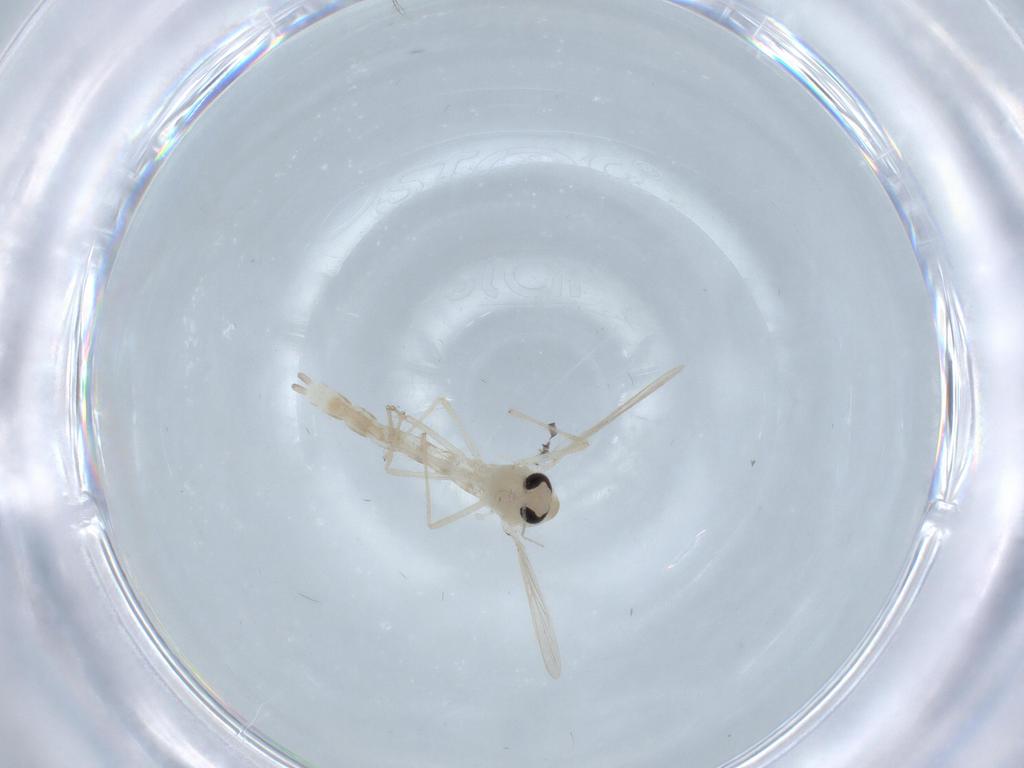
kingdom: Animalia
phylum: Arthropoda
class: Insecta
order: Diptera
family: Chironomidae
